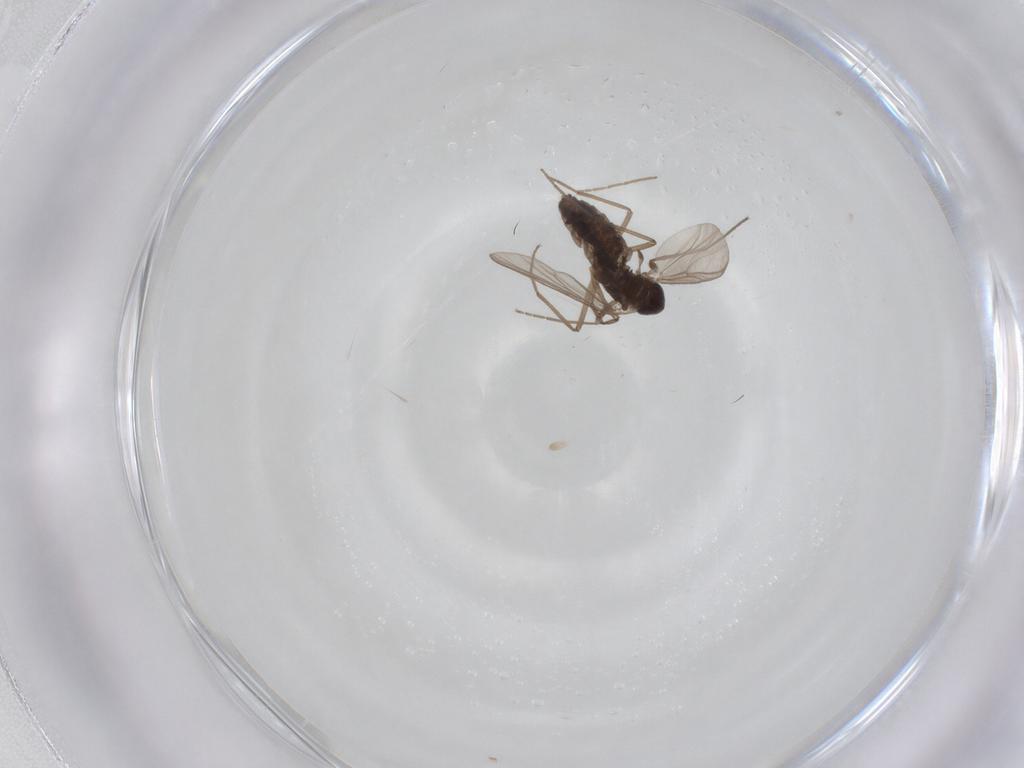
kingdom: Animalia
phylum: Arthropoda
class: Insecta
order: Diptera
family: Chironomidae
